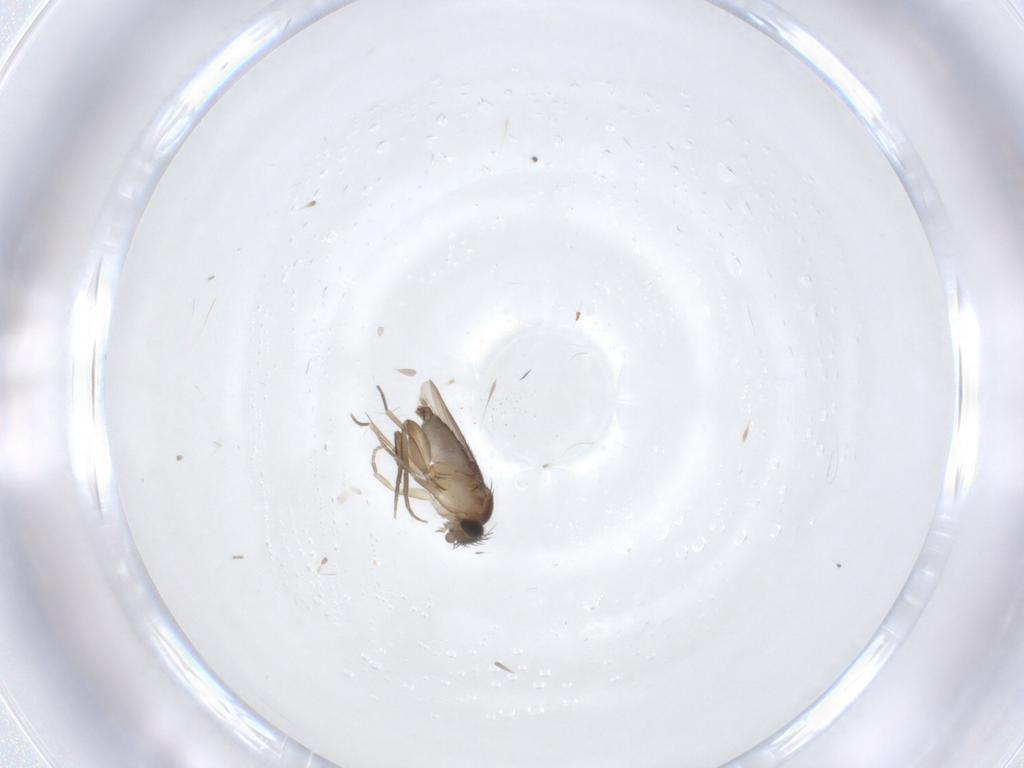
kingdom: Animalia
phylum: Arthropoda
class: Insecta
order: Diptera
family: Cecidomyiidae
